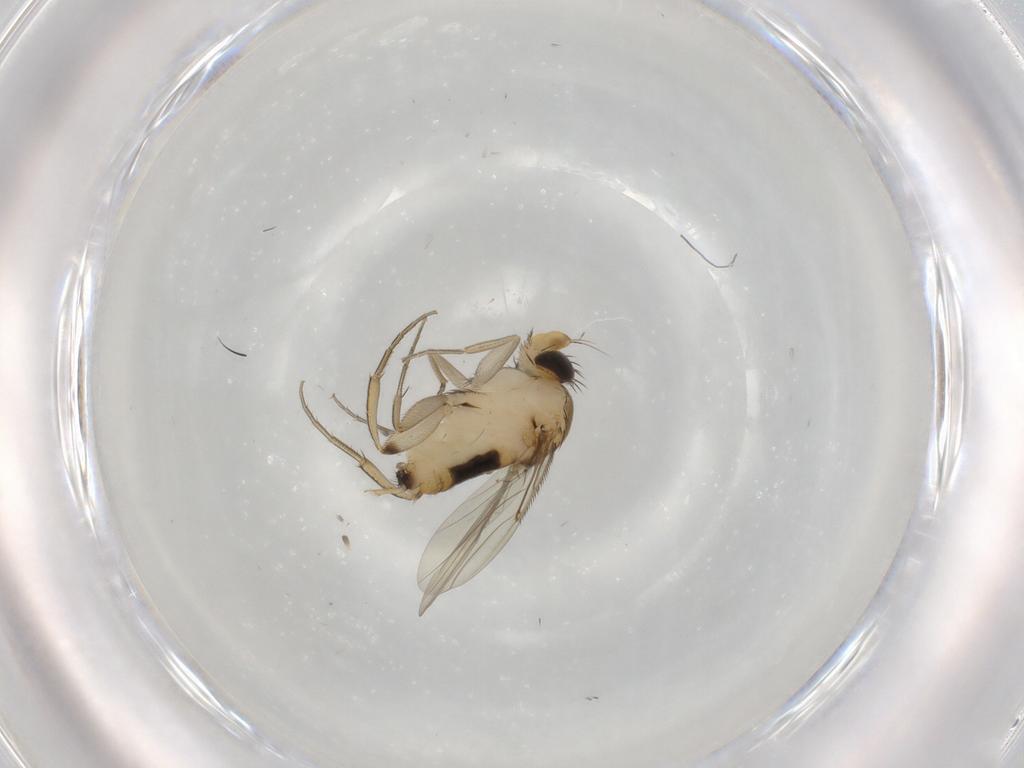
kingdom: Animalia
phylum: Arthropoda
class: Insecta
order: Diptera
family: Phoridae
